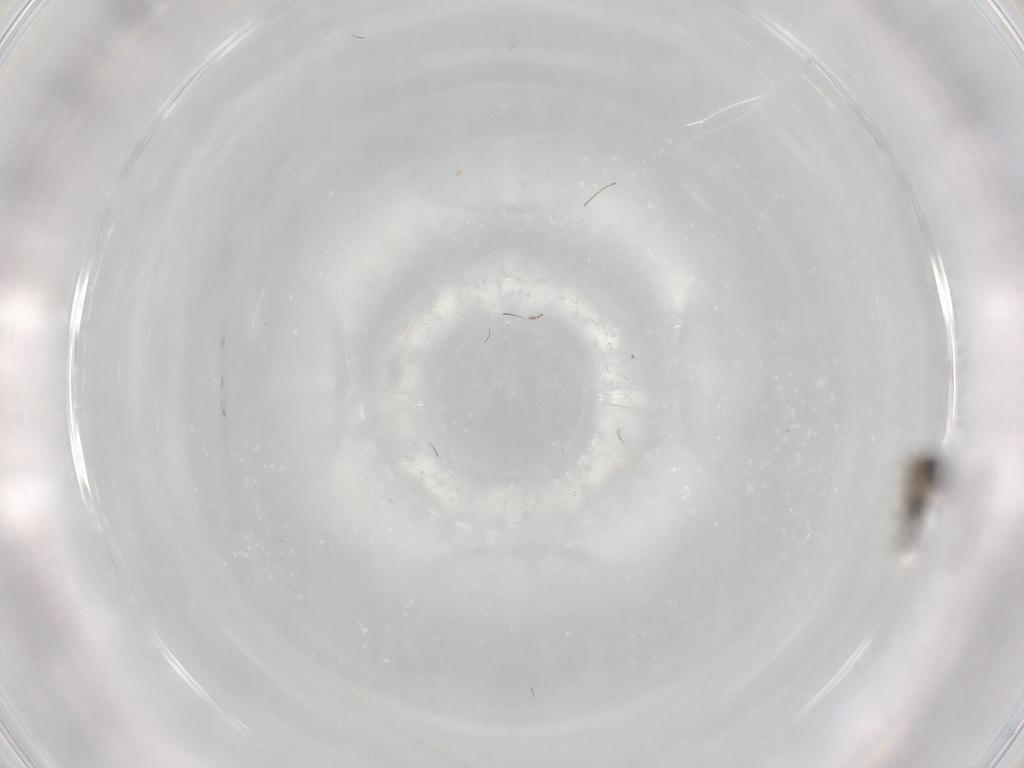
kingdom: Animalia
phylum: Arthropoda
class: Insecta
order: Diptera
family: Chironomidae
